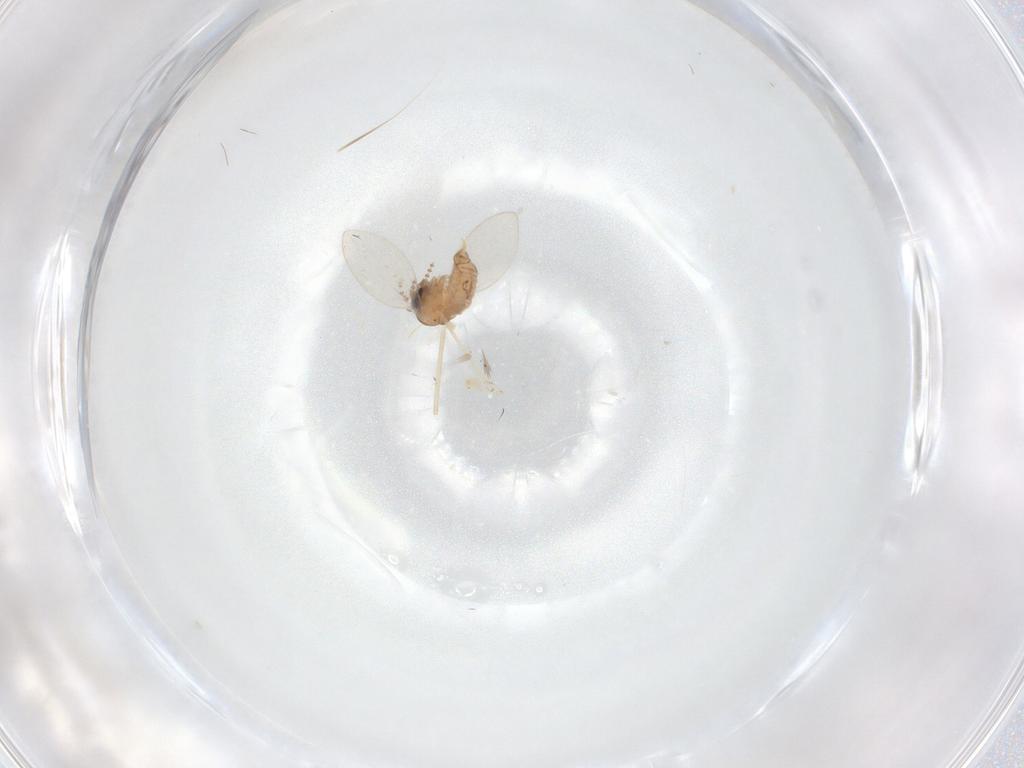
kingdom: Animalia
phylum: Arthropoda
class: Insecta
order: Diptera
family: Psychodidae
